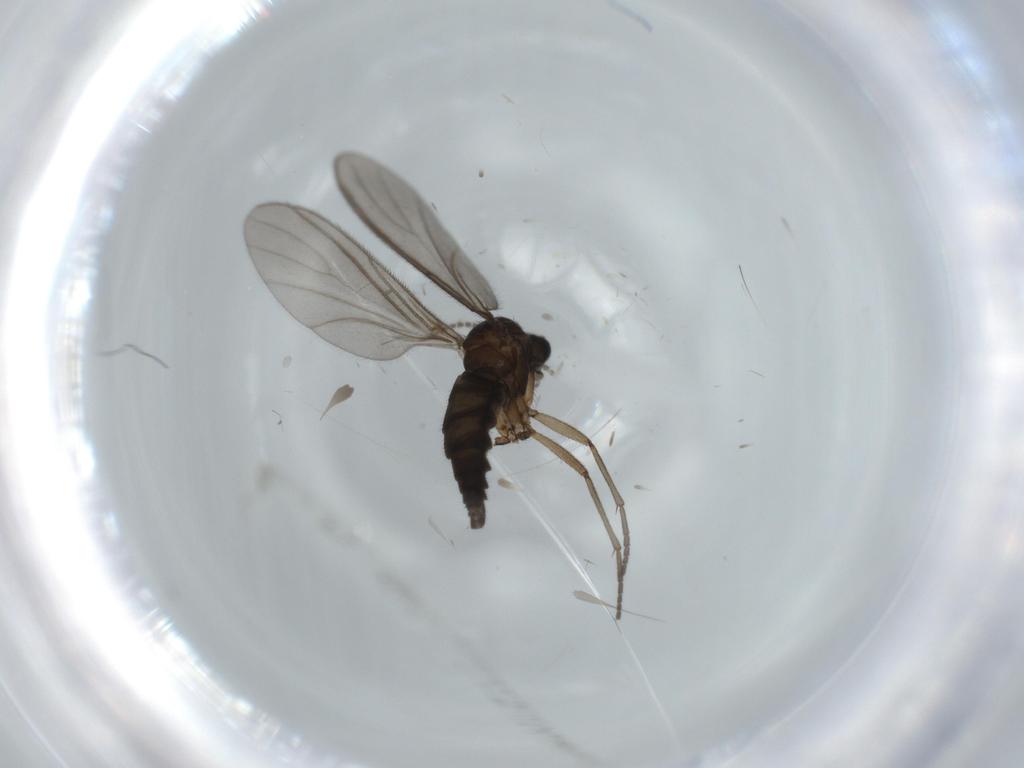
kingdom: Animalia
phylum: Arthropoda
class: Insecta
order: Diptera
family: Sciaridae
